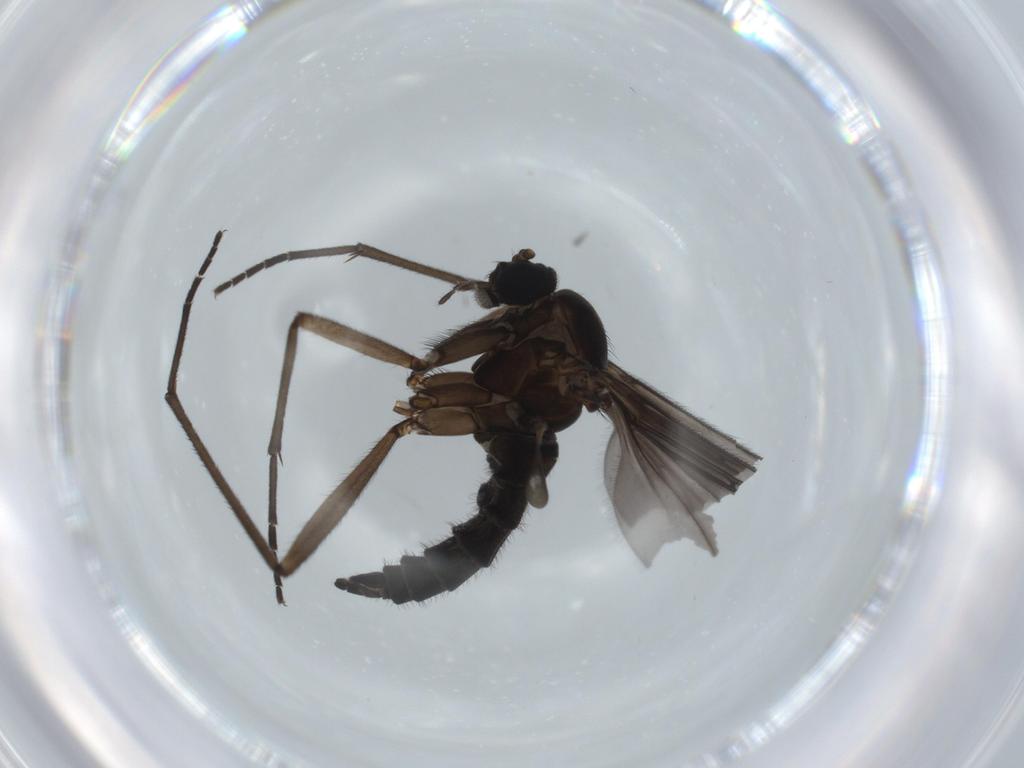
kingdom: Animalia
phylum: Arthropoda
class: Insecta
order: Diptera
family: Sciaridae
